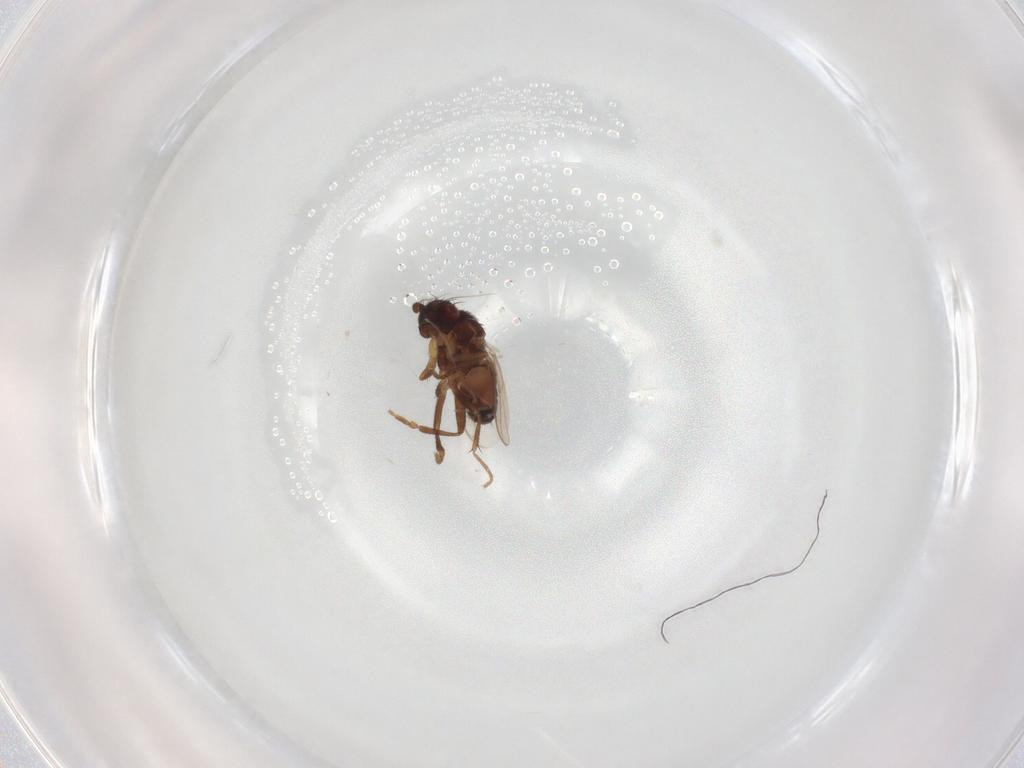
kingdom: Animalia
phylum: Arthropoda
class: Insecta
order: Diptera
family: Sphaeroceridae
